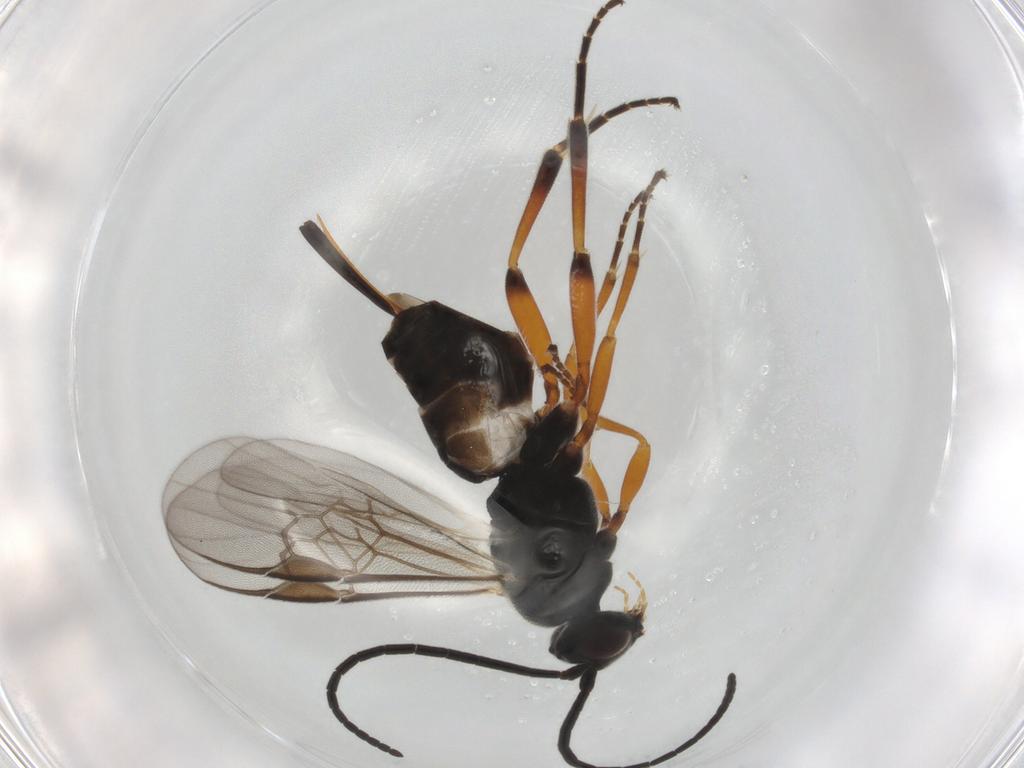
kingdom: Animalia
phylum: Arthropoda
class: Insecta
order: Hymenoptera
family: Braconidae
